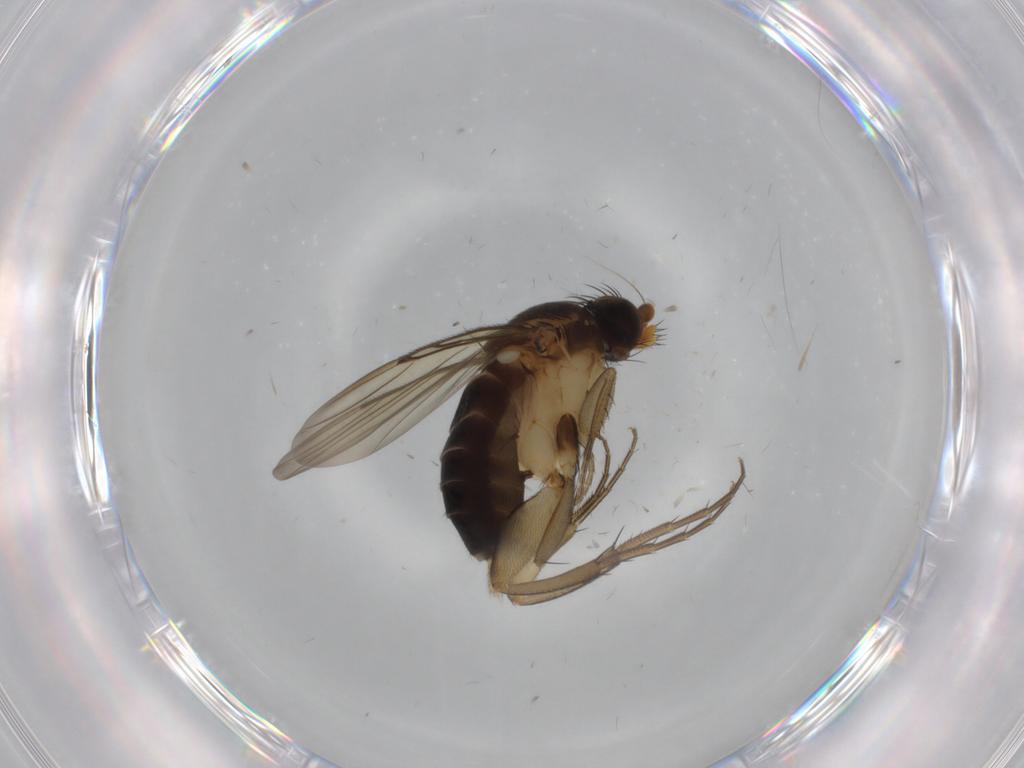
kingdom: Animalia
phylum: Arthropoda
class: Insecta
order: Diptera
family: Phoridae
